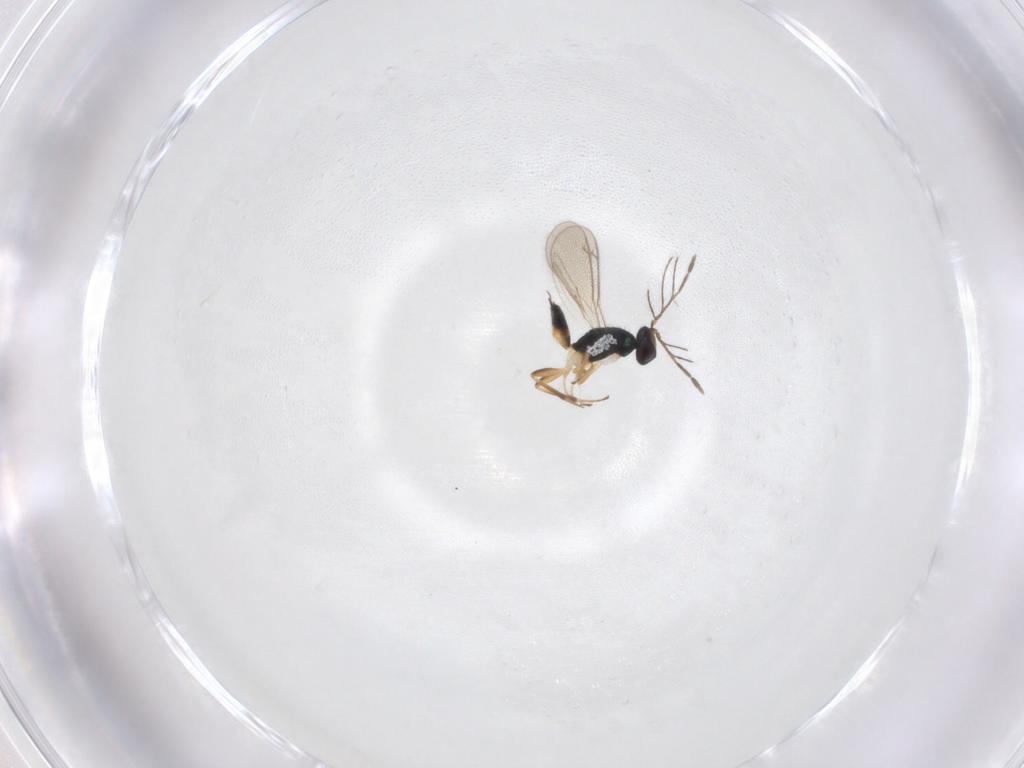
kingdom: Animalia
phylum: Arthropoda
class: Insecta
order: Hymenoptera
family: Eulophidae
